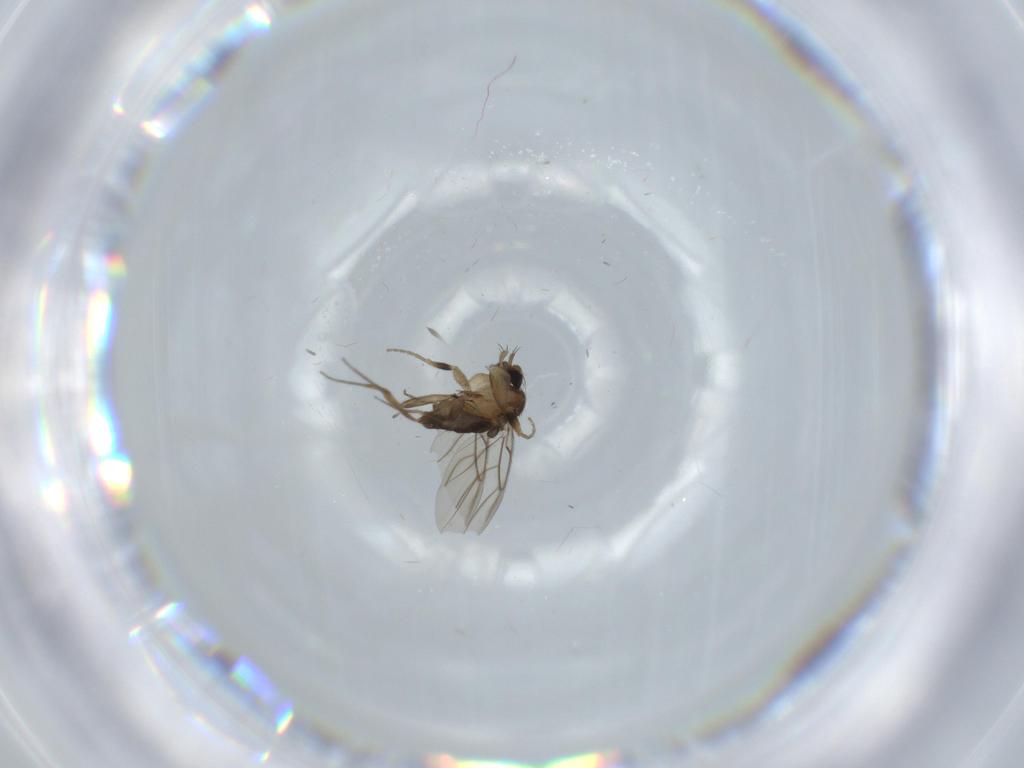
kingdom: Animalia
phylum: Arthropoda
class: Insecta
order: Diptera
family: Phoridae
